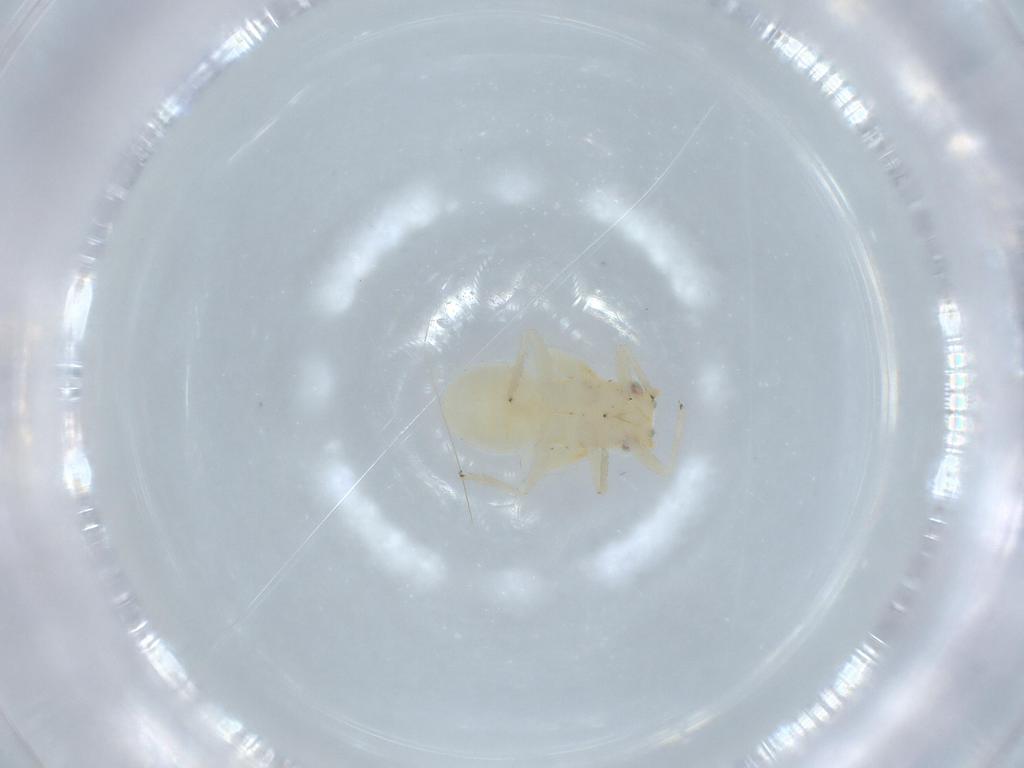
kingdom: Animalia
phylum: Arthropoda
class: Insecta
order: Hemiptera
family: Psyllidae
